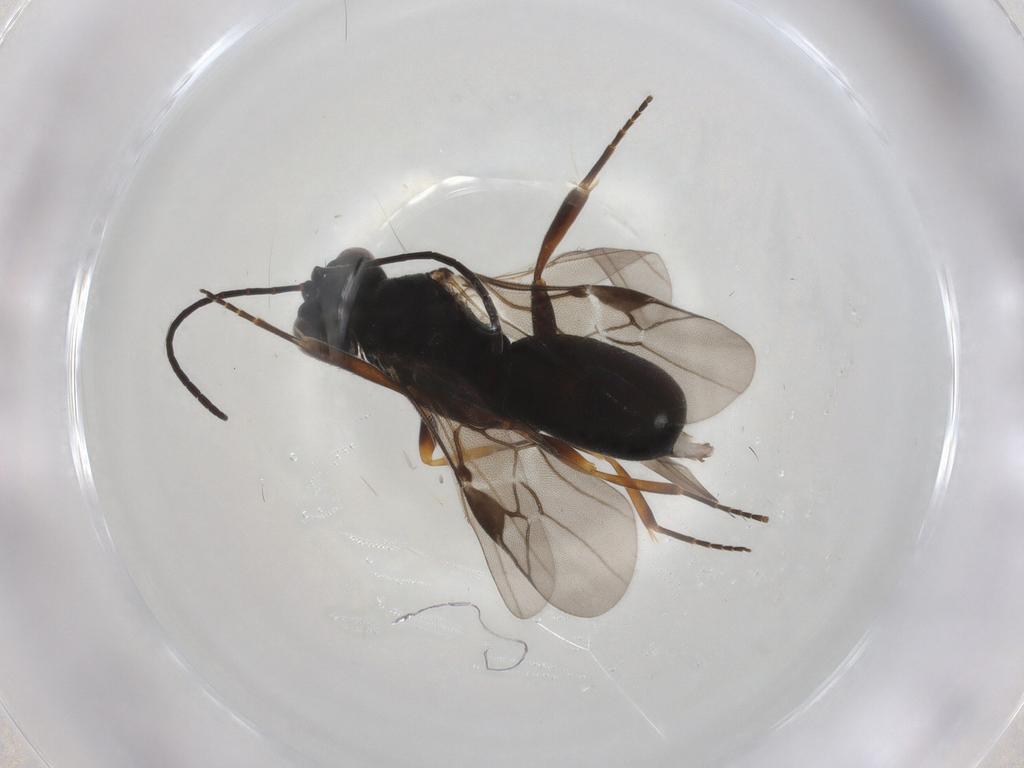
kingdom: Animalia
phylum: Arthropoda
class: Insecta
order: Hymenoptera
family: Braconidae
